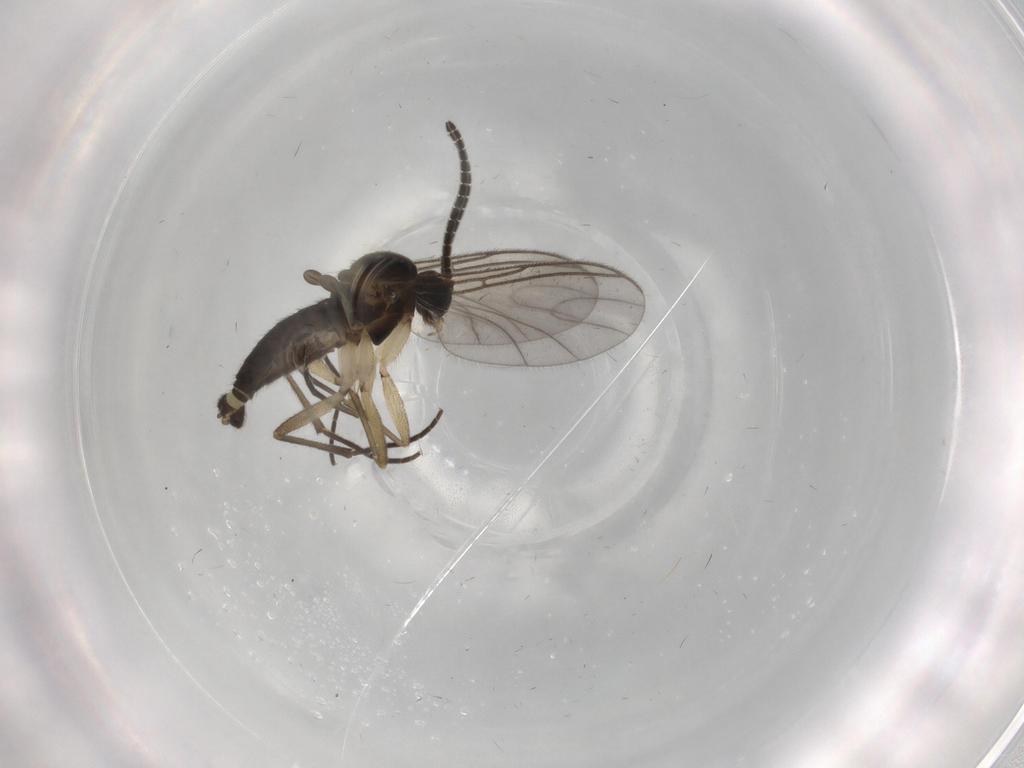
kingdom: Animalia
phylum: Arthropoda
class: Insecta
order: Diptera
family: Sciaridae
